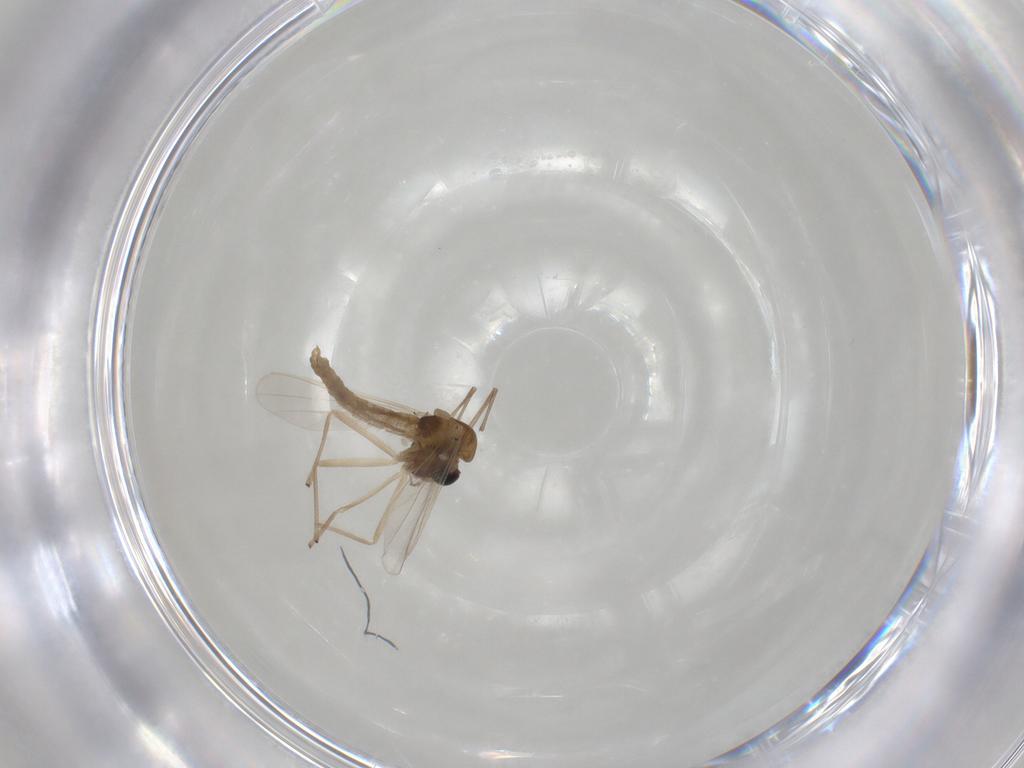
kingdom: Animalia
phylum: Arthropoda
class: Insecta
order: Diptera
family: Chironomidae
